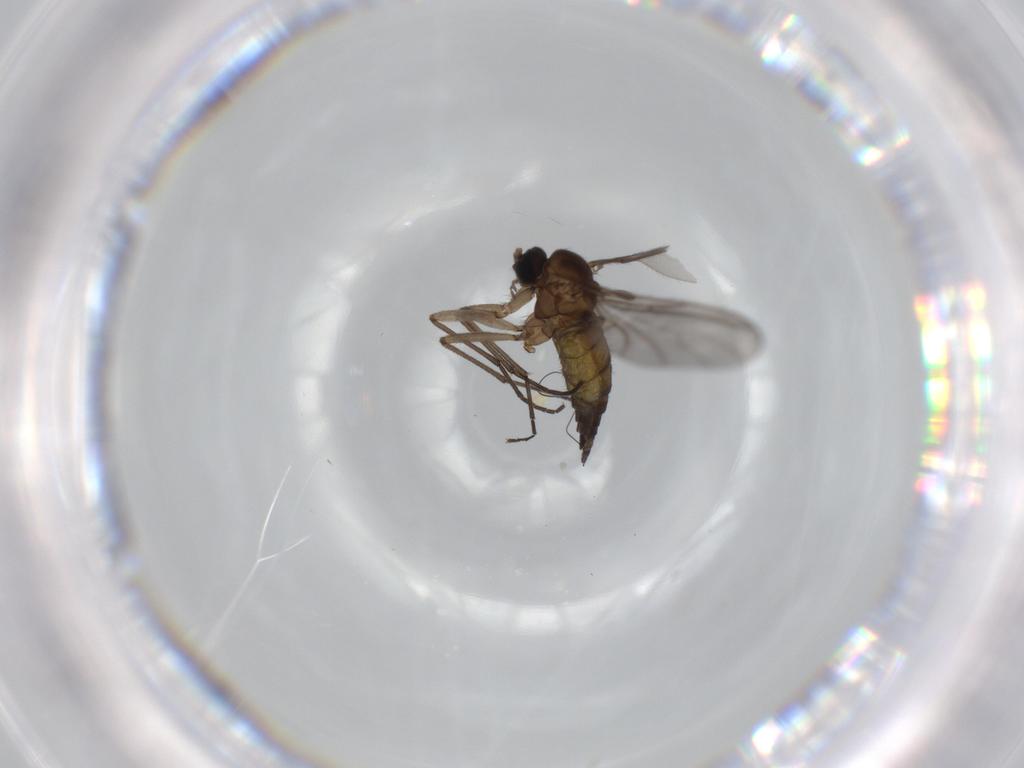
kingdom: Animalia
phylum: Arthropoda
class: Insecta
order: Diptera
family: Sciaridae
